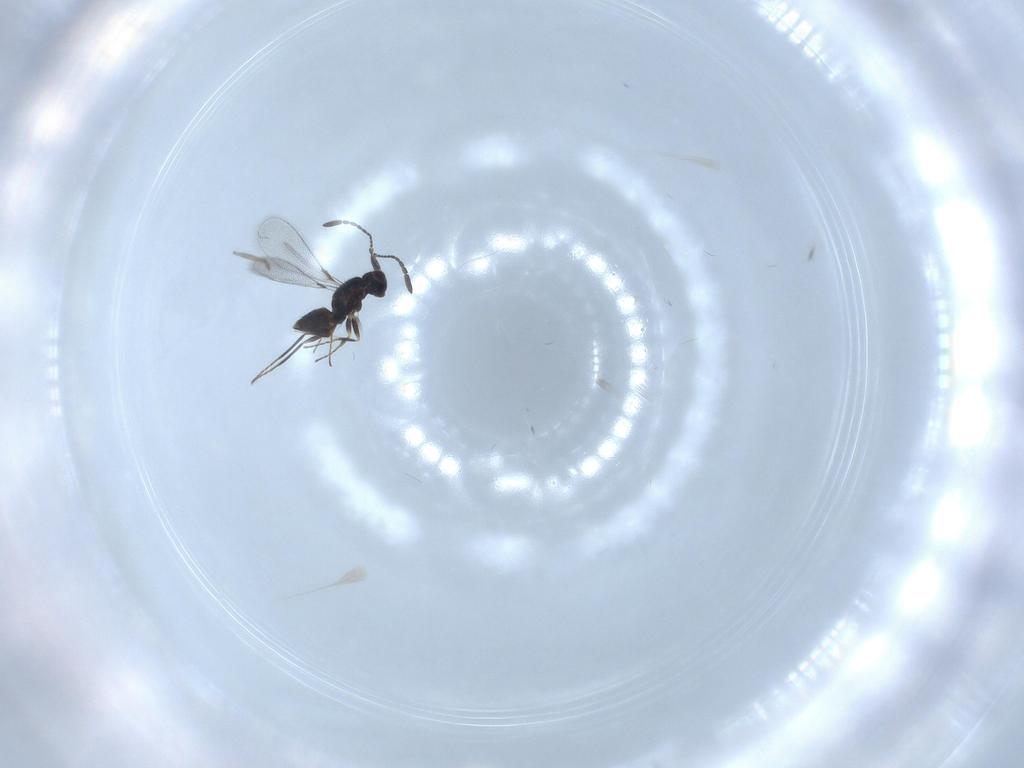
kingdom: Animalia
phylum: Arthropoda
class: Insecta
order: Hymenoptera
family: Mymaridae
